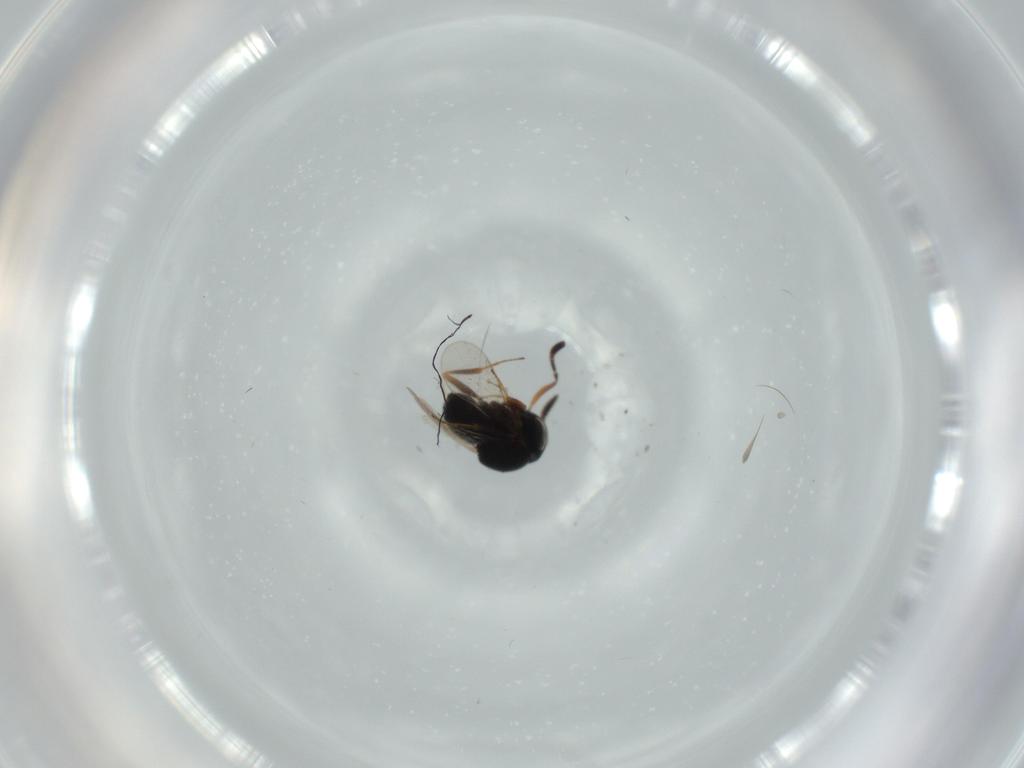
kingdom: Animalia
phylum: Arthropoda
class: Insecta
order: Hymenoptera
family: Scelionidae
